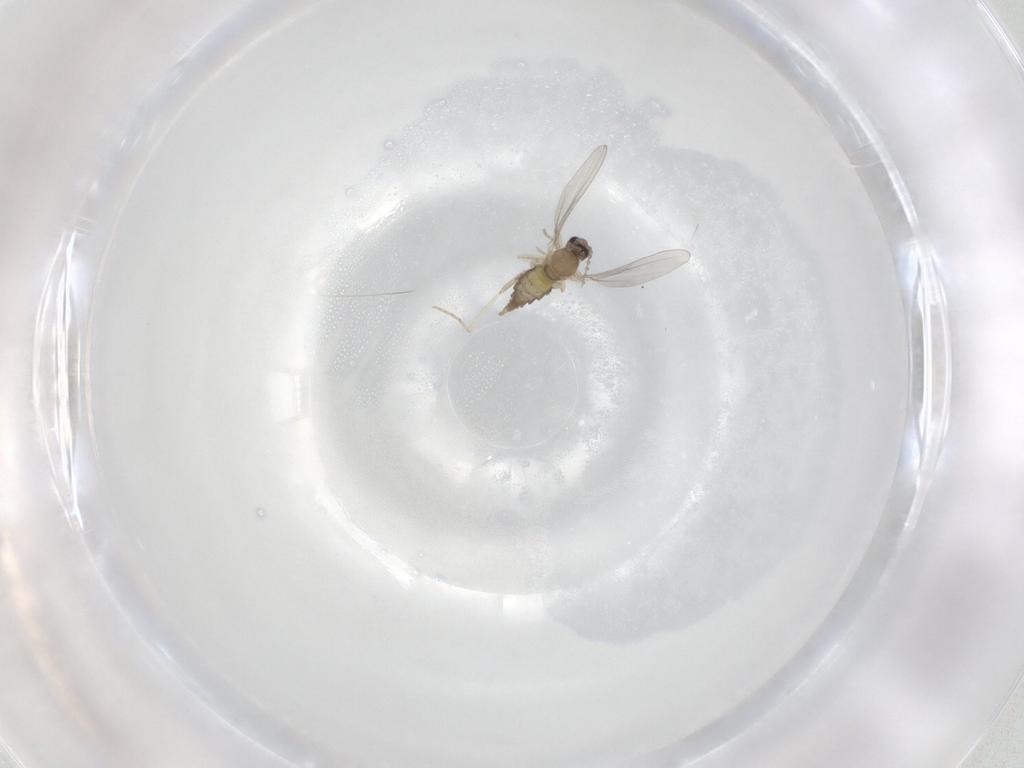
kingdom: Animalia
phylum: Arthropoda
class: Insecta
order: Diptera
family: Cecidomyiidae
